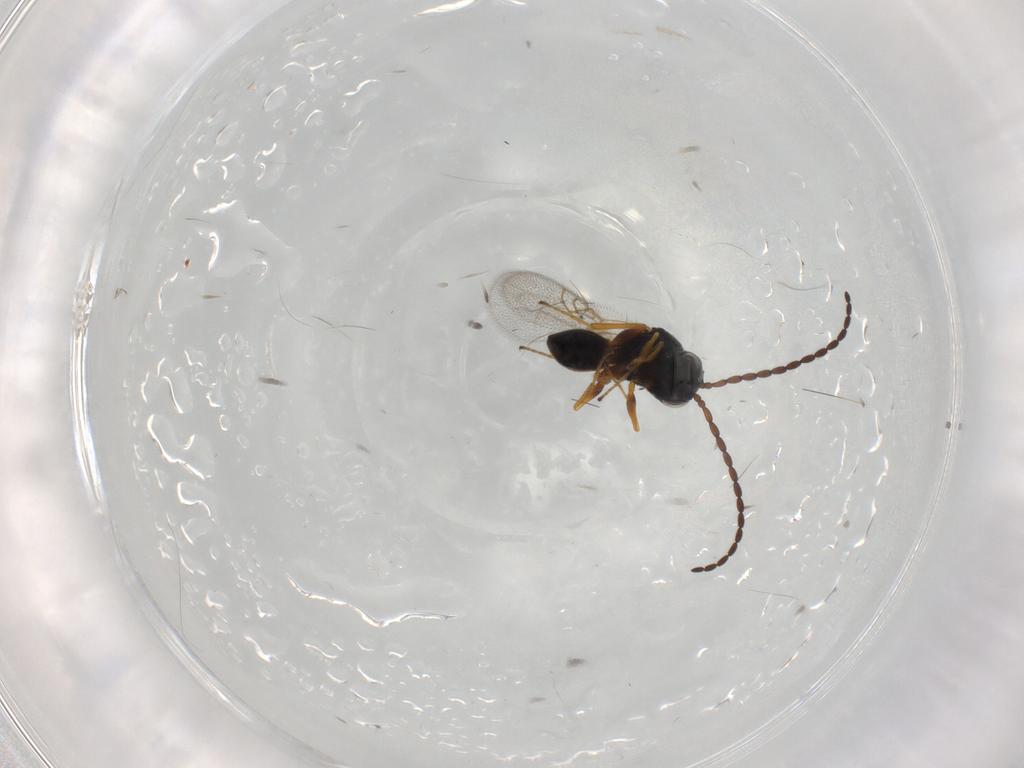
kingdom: Animalia
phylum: Arthropoda
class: Insecta
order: Hymenoptera
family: Figitidae
